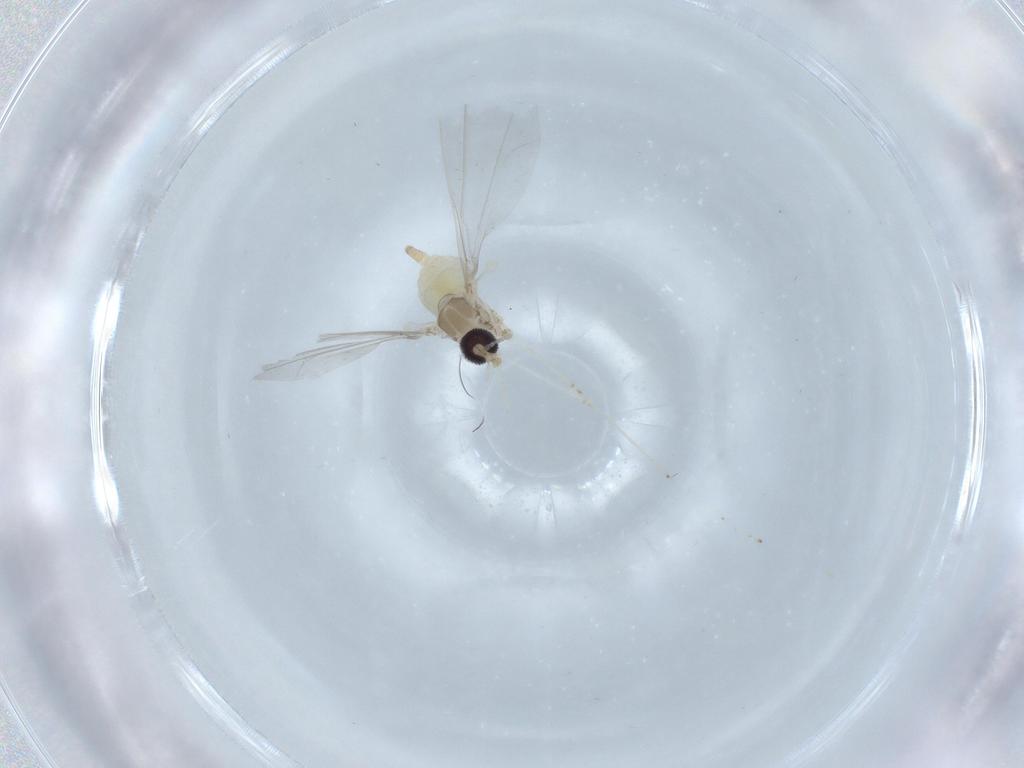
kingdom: Animalia
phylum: Arthropoda
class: Insecta
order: Diptera
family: Cecidomyiidae
